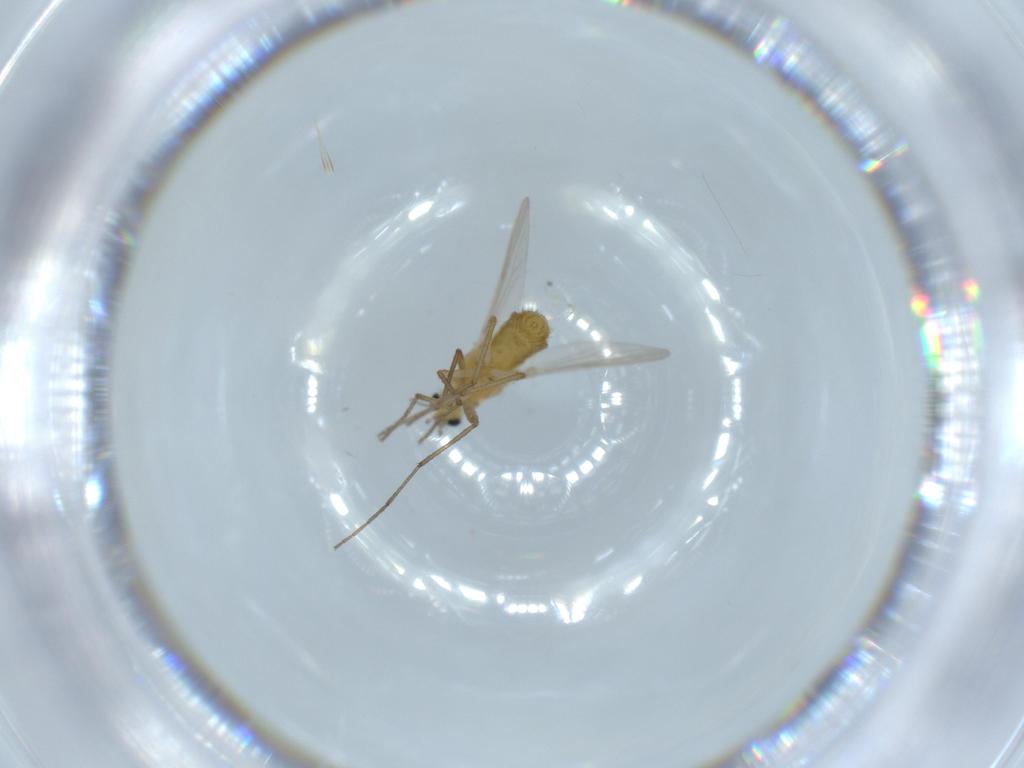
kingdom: Animalia
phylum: Arthropoda
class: Insecta
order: Diptera
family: Chironomidae
